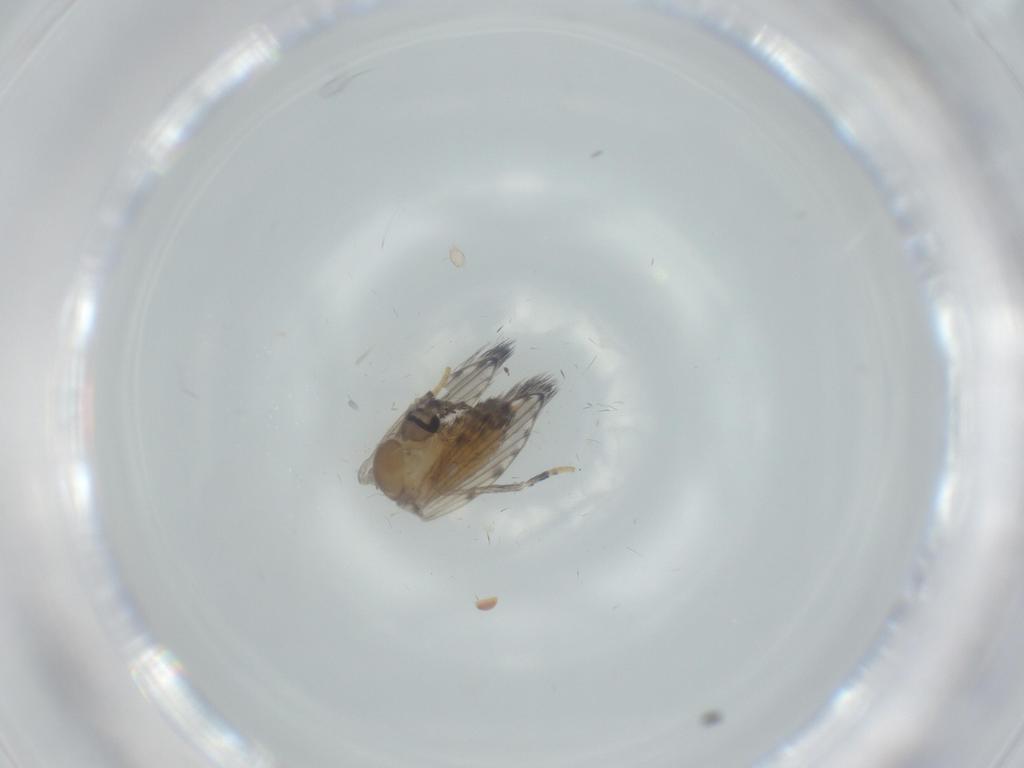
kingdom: Animalia
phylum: Arthropoda
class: Insecta
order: Diptera
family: Psychodidae
